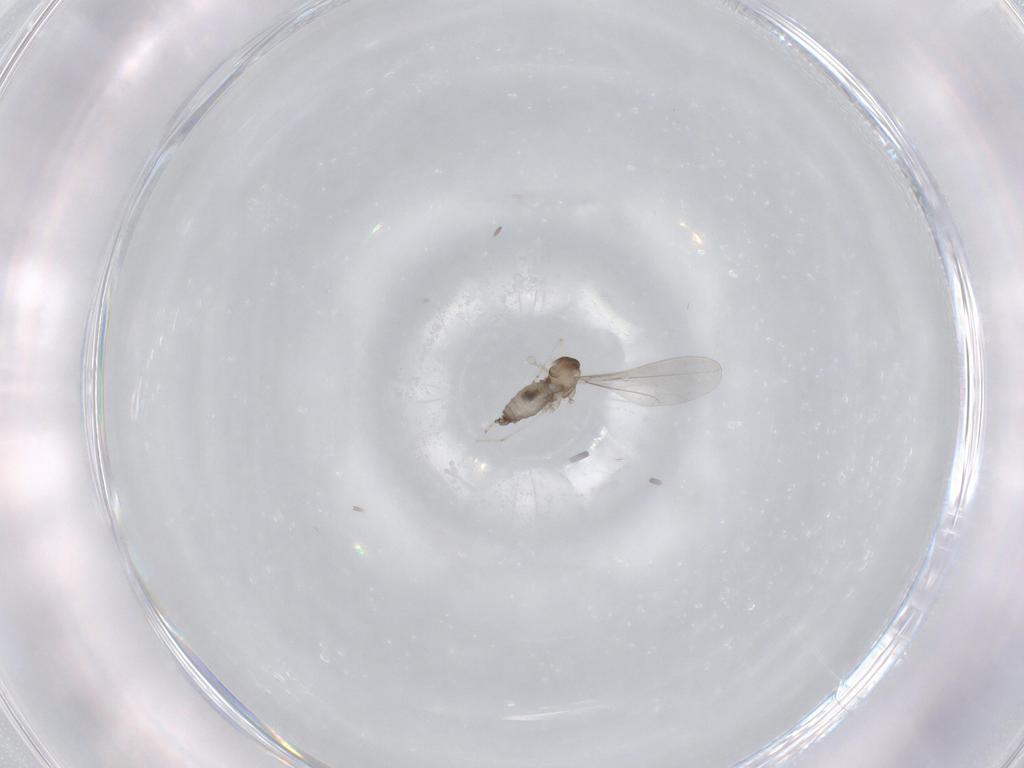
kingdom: Animalia
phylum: Arthropoda
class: Insecta
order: Diptera
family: Cecidomyiidae
